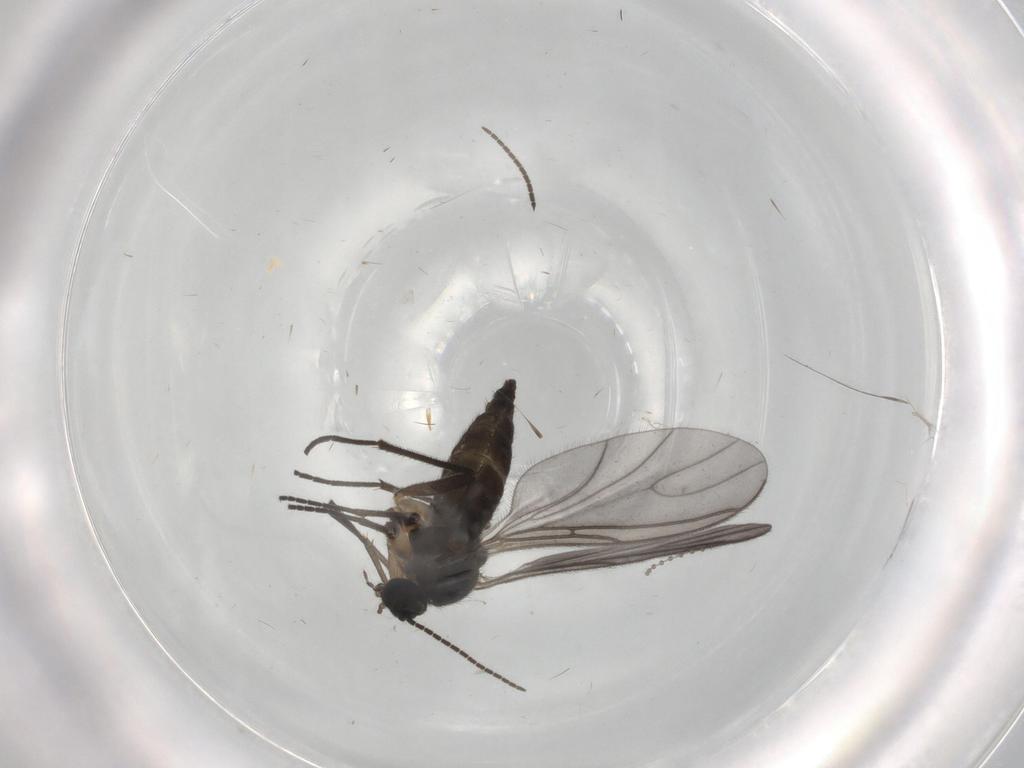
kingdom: Animalia
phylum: Arthropoda
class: Insecta
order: Diptera
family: Sciaridae
